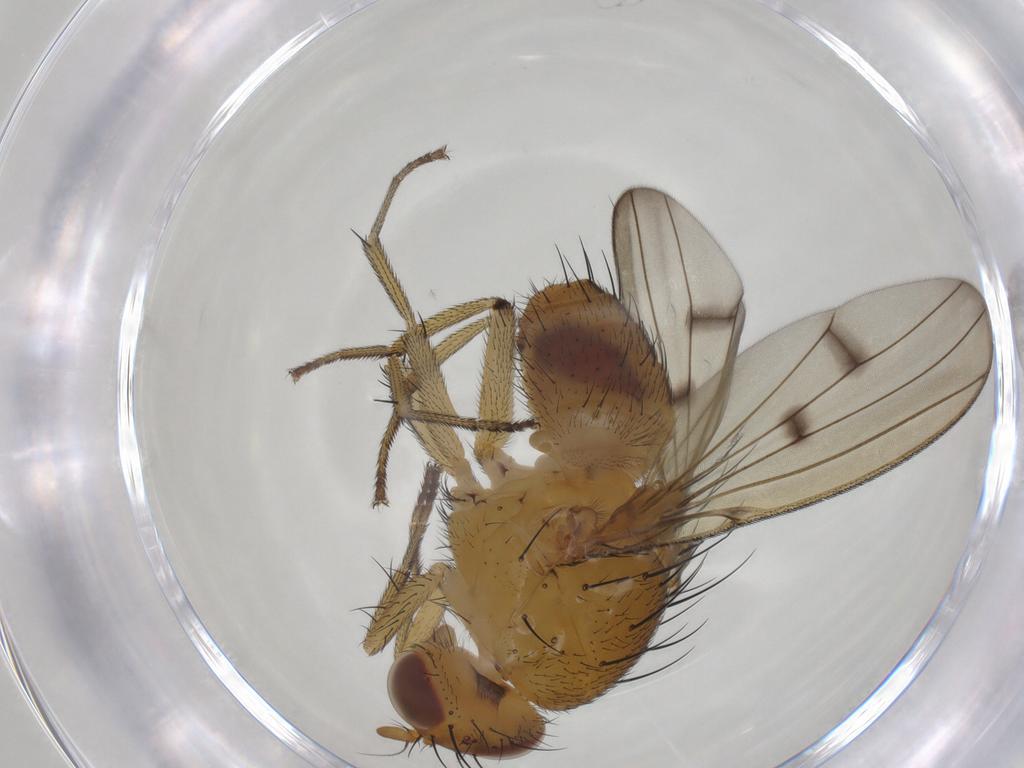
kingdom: Animalia
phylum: Arthropoda
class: Insecta
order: Diptera
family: Lauxaniidae
